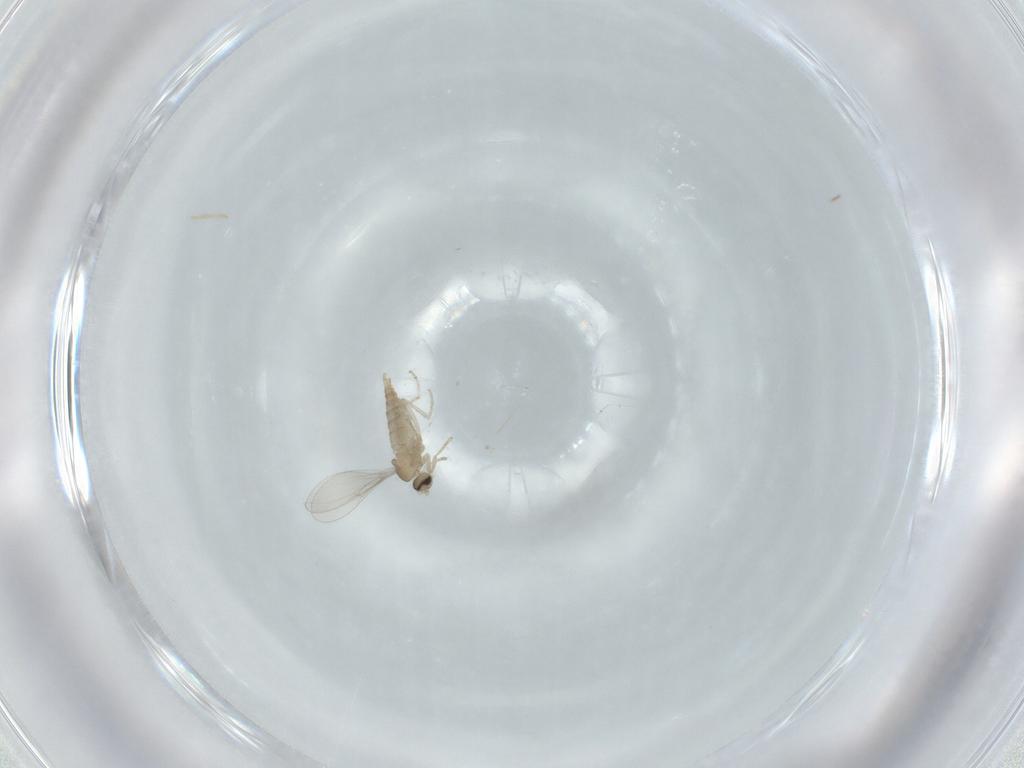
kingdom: Animalia
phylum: Arthropoda
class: Insecta
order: Diptera
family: Cecidomyiidae
